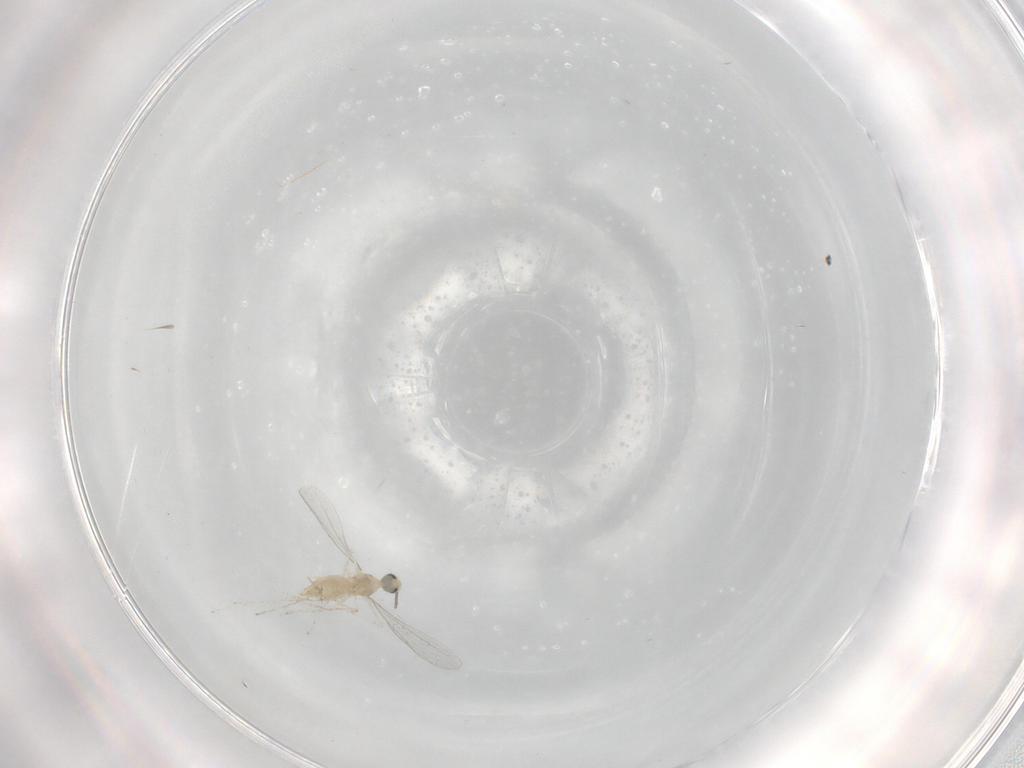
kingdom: Animalia
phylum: Arthropoda
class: Insecta
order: Diptera
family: Cecidomyiidae
